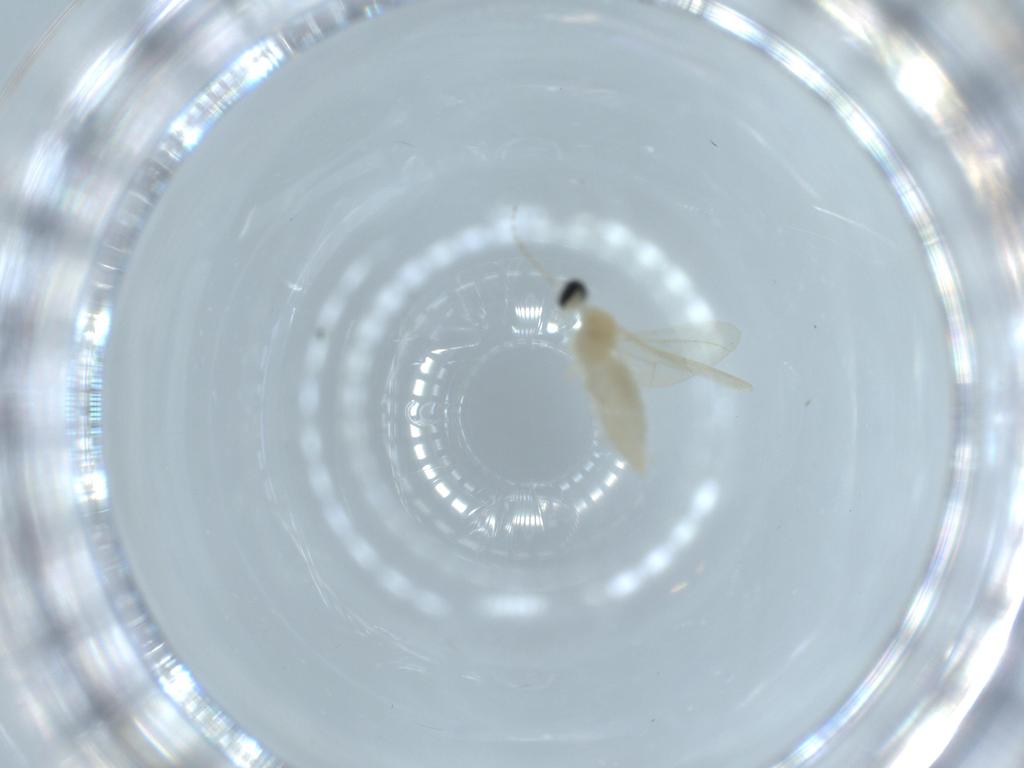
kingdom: Animalia
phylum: Arthropoda
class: Insecta
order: Diptera
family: Cecidomyiidae
